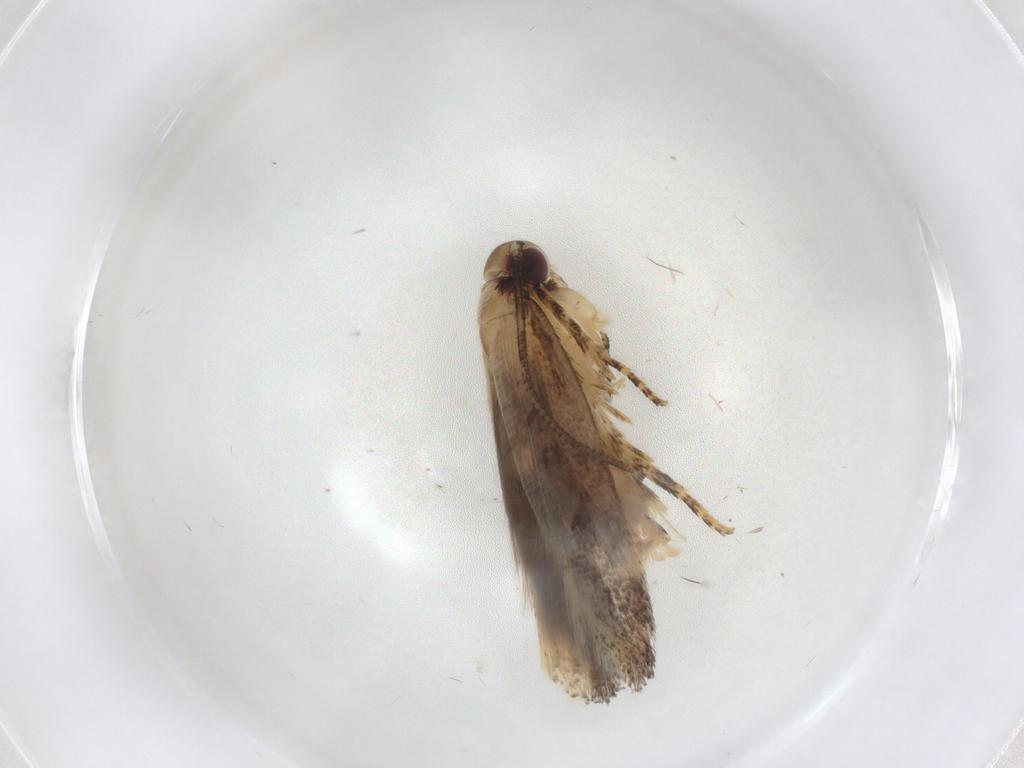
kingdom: Animalia
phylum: Arthropoda
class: Insecta
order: Lepidoptera
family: Gelechiidae
